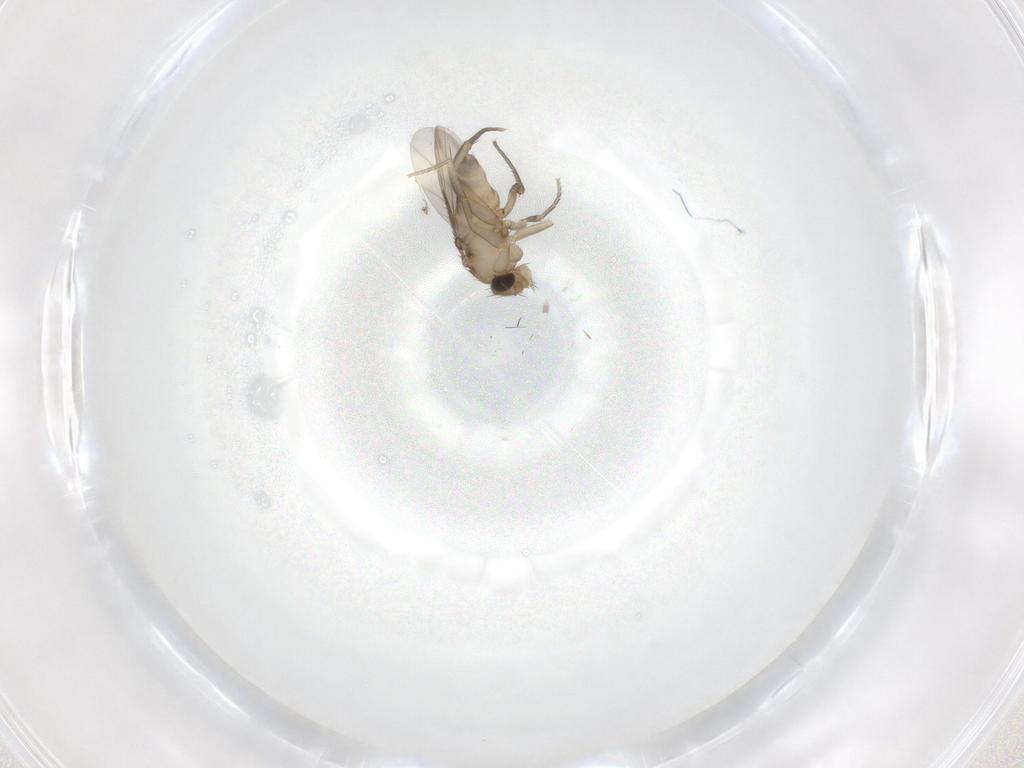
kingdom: Animalia
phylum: Arthropoda
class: Insecta
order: Diptera
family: Phoridae
